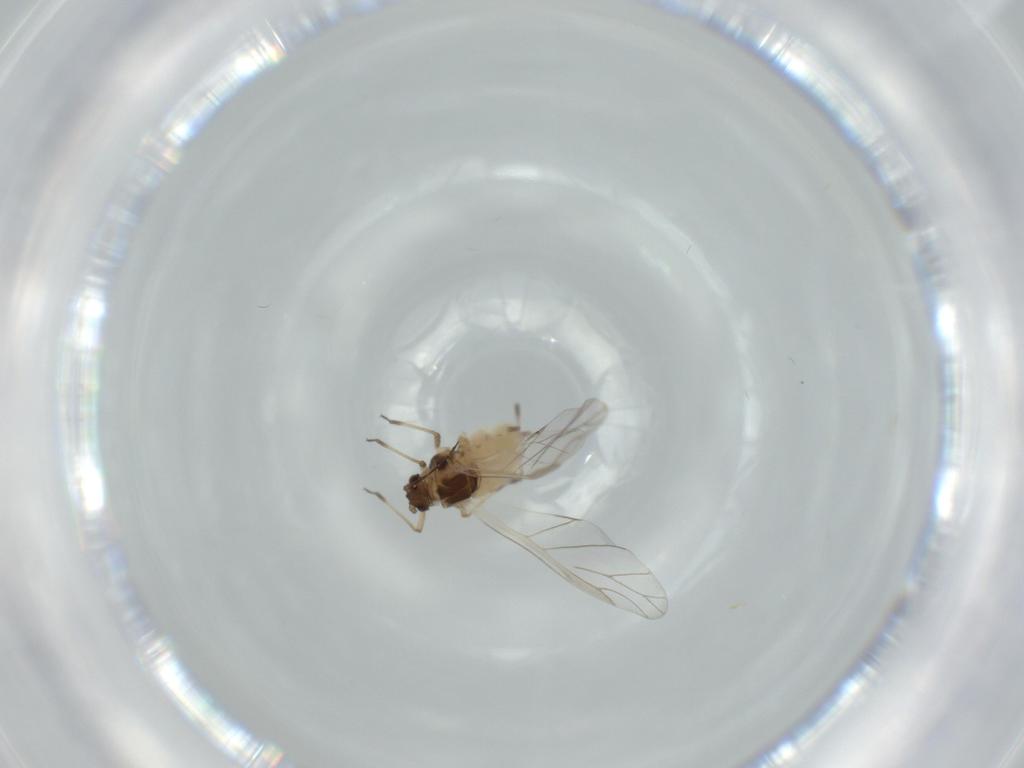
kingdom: Animalia
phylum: Arthropoda
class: Insecta
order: Hemiptera
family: Aphididae
